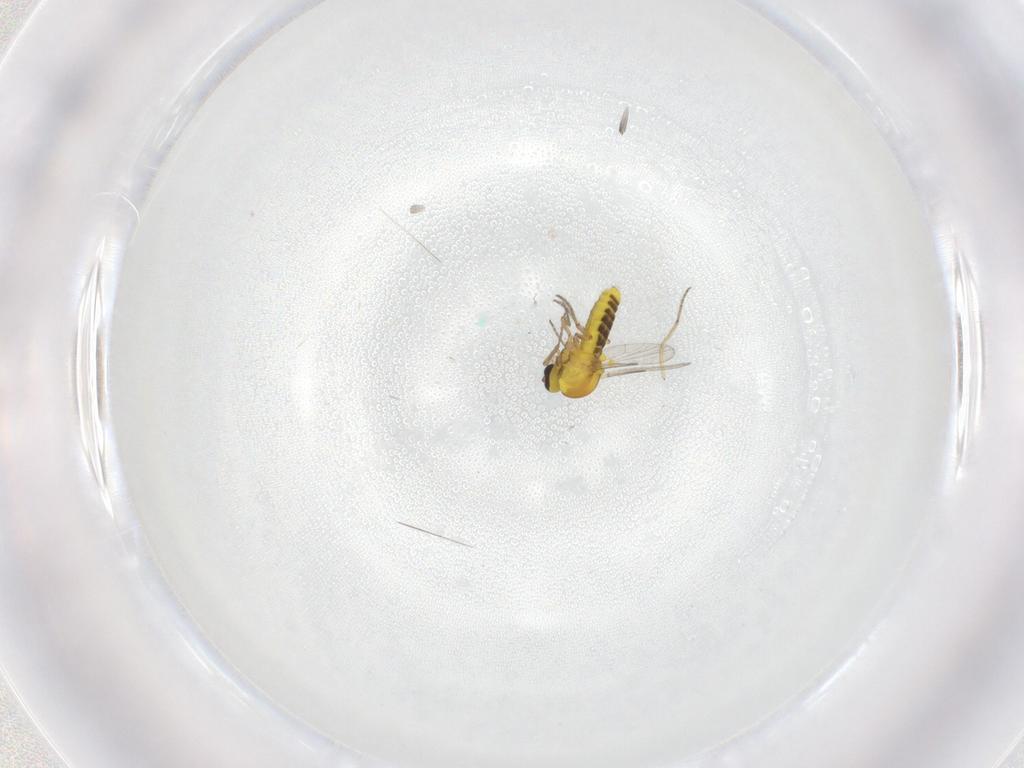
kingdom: Animalia
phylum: Arthropoda
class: Insecta
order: Diptera
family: Ceratopogonidae
